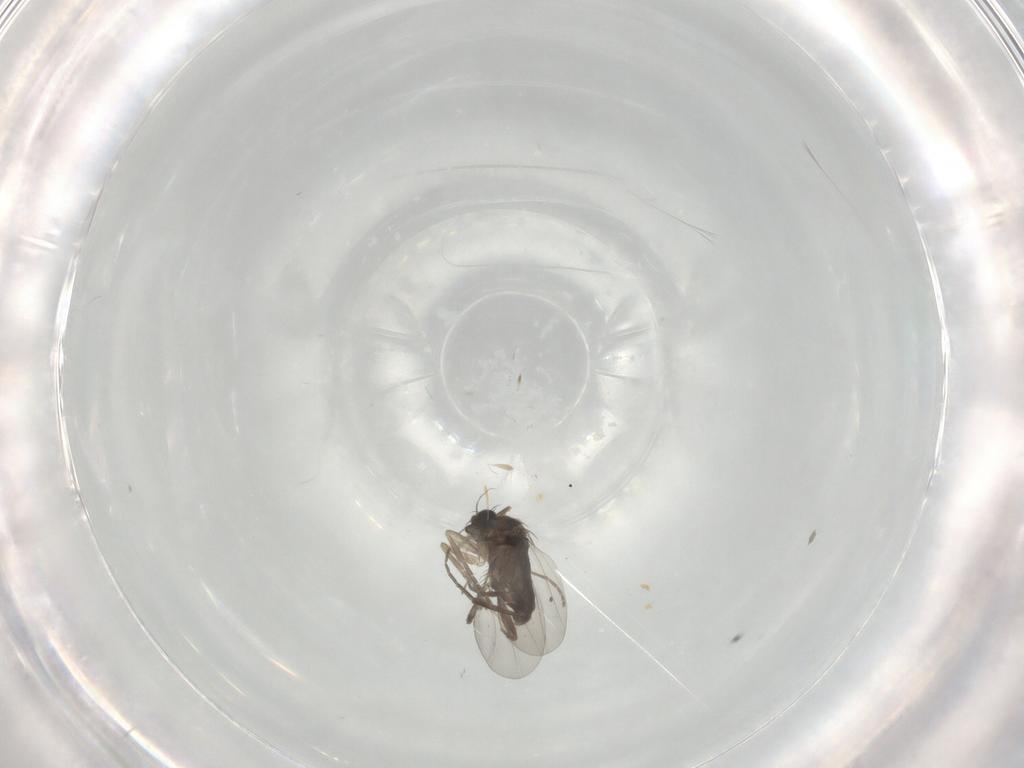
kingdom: Animalia
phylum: Arthropoda
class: Insecta
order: Diptera
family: Phoridae
